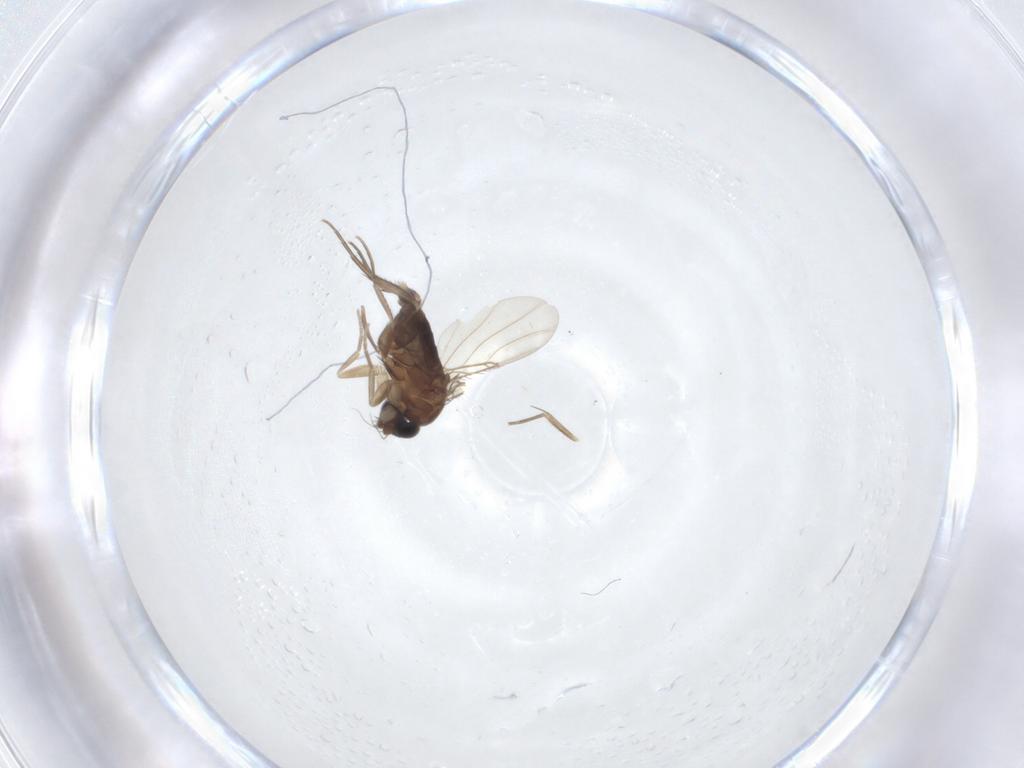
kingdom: Animalia
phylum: Arthropoda
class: Insecta
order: Diptera
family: Phoridae
